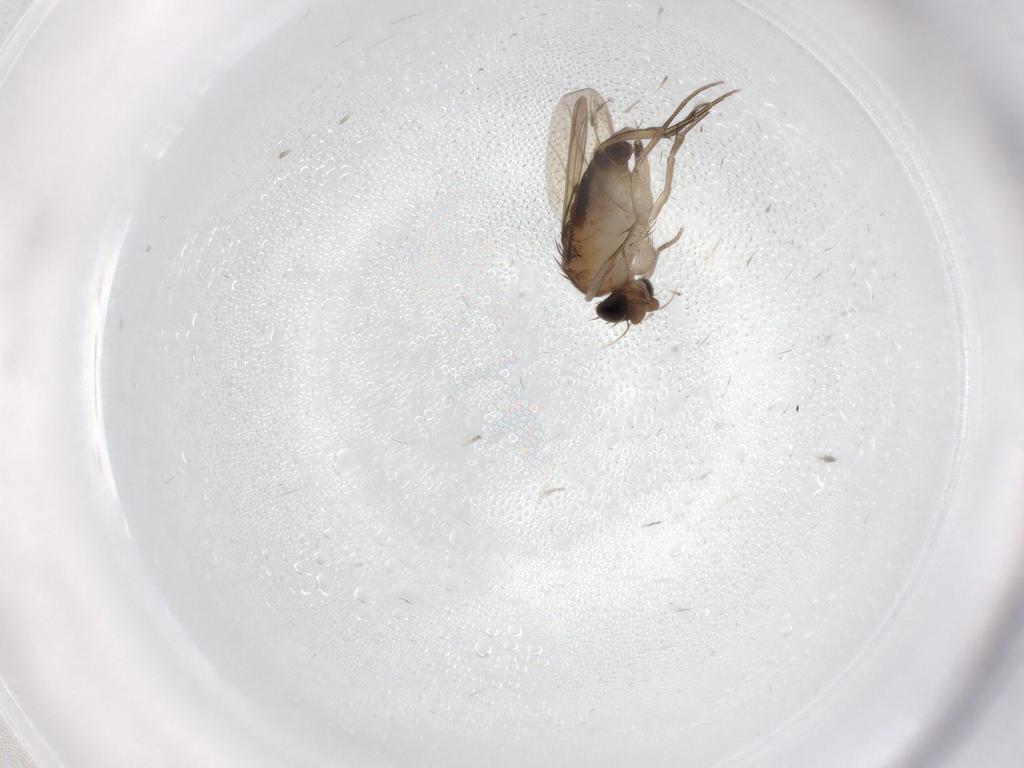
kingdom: Animalia
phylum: Arthropoda
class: Insecta
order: Diptera
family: Phoridae
